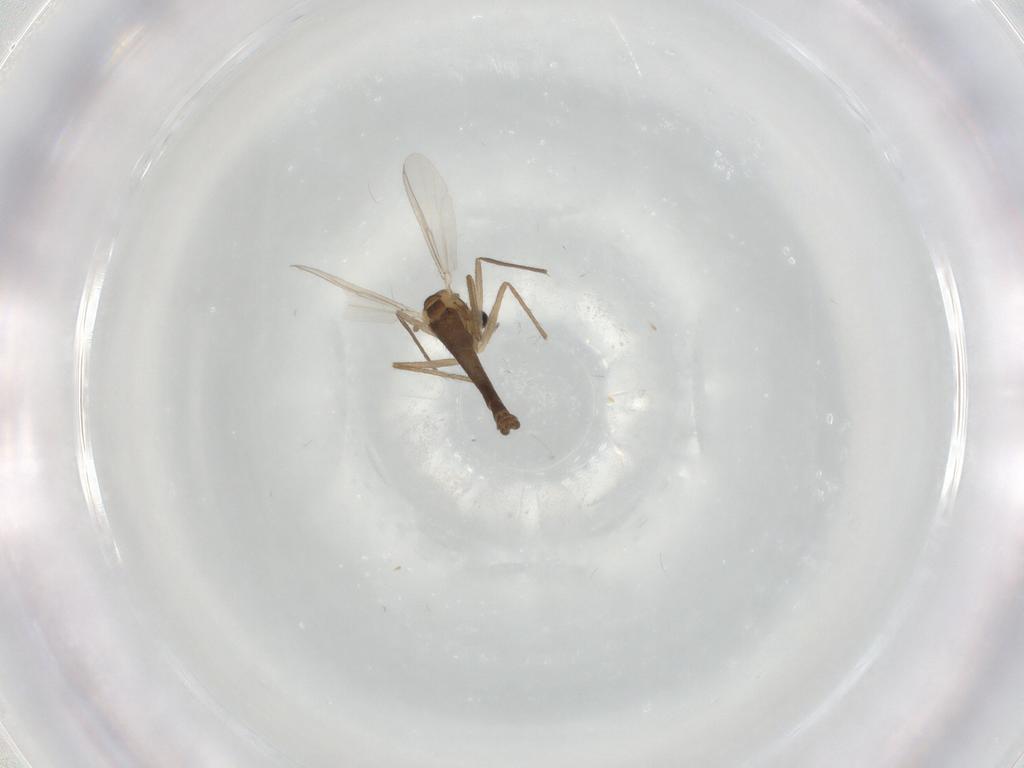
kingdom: Animalia
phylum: Arthropoda
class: Insecta
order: Diptera
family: Chironomidae
